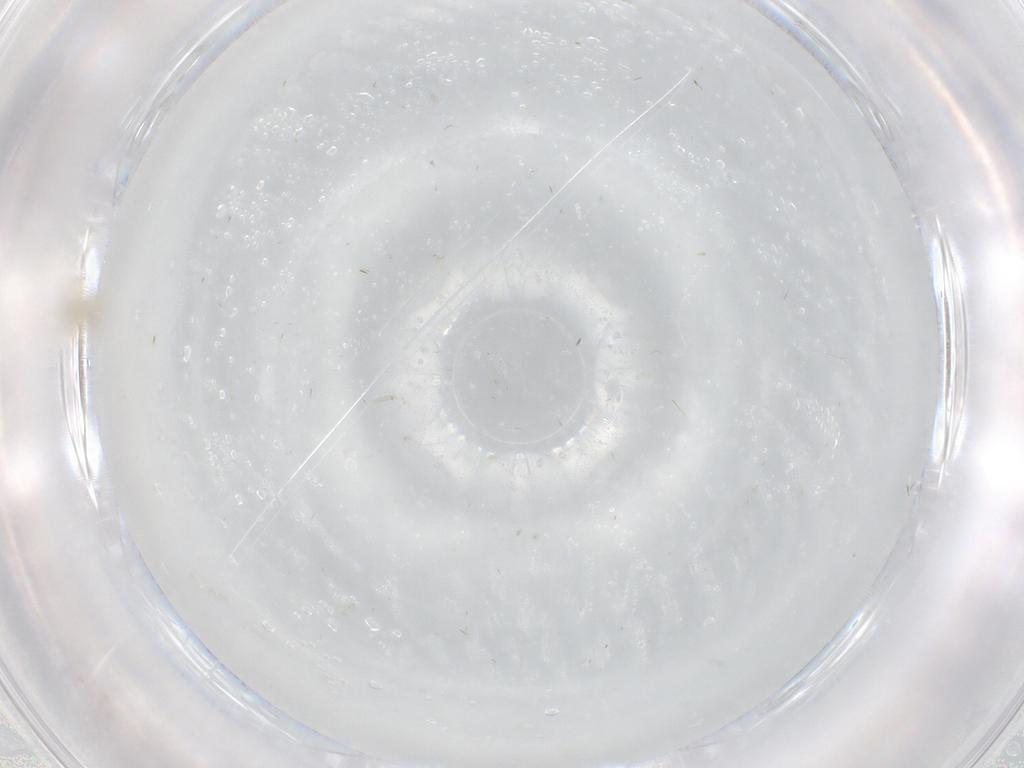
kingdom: Animalia
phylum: Arthropoda
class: Insecta
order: Hemiptera
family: Aleyrodidae
